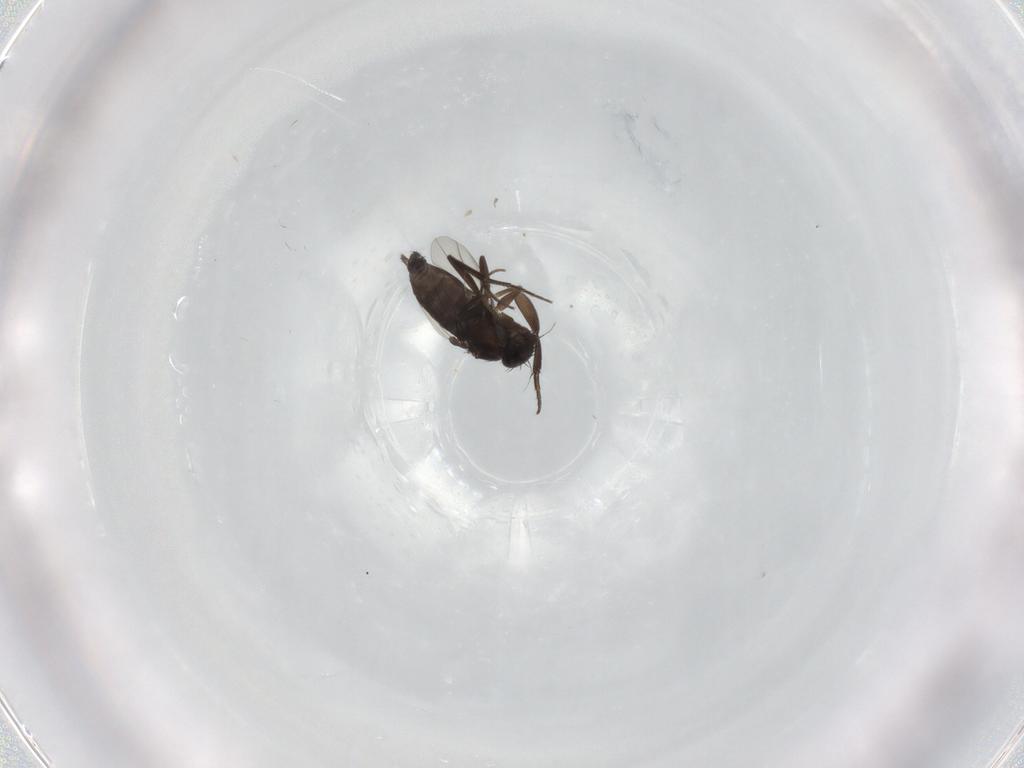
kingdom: Animalia
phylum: Arthropoda
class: Insecta
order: Diptera
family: Phoridae
